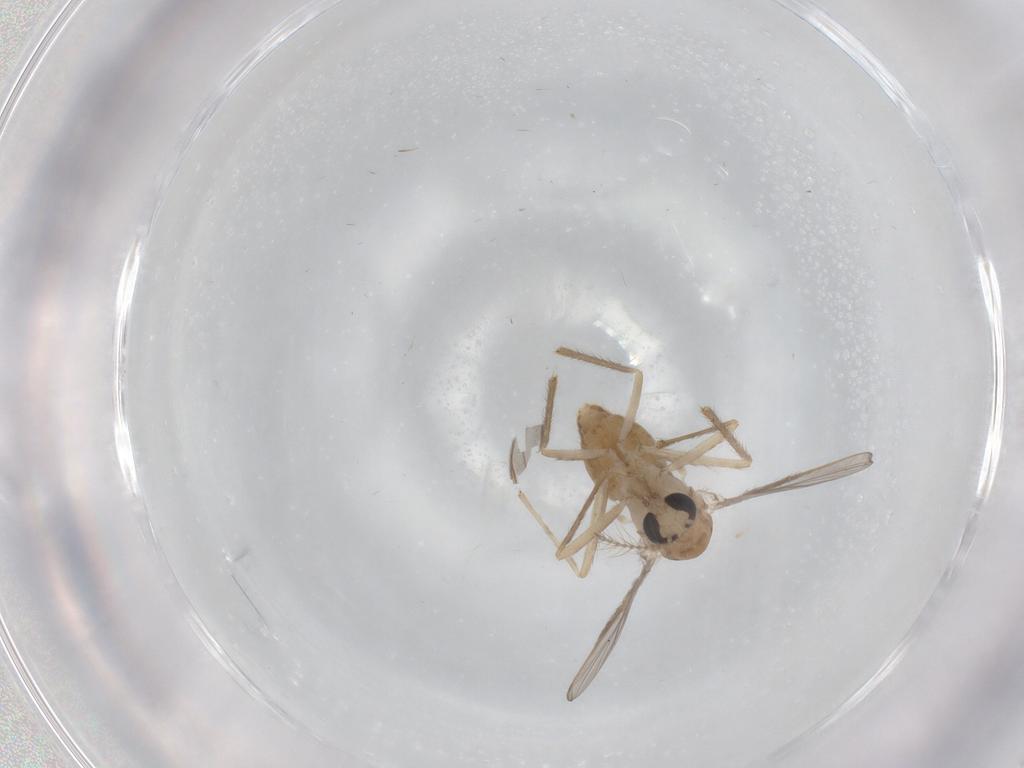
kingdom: Animalia
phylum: Arthropoda
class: Insecta
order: Diptera
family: Chironomidae
